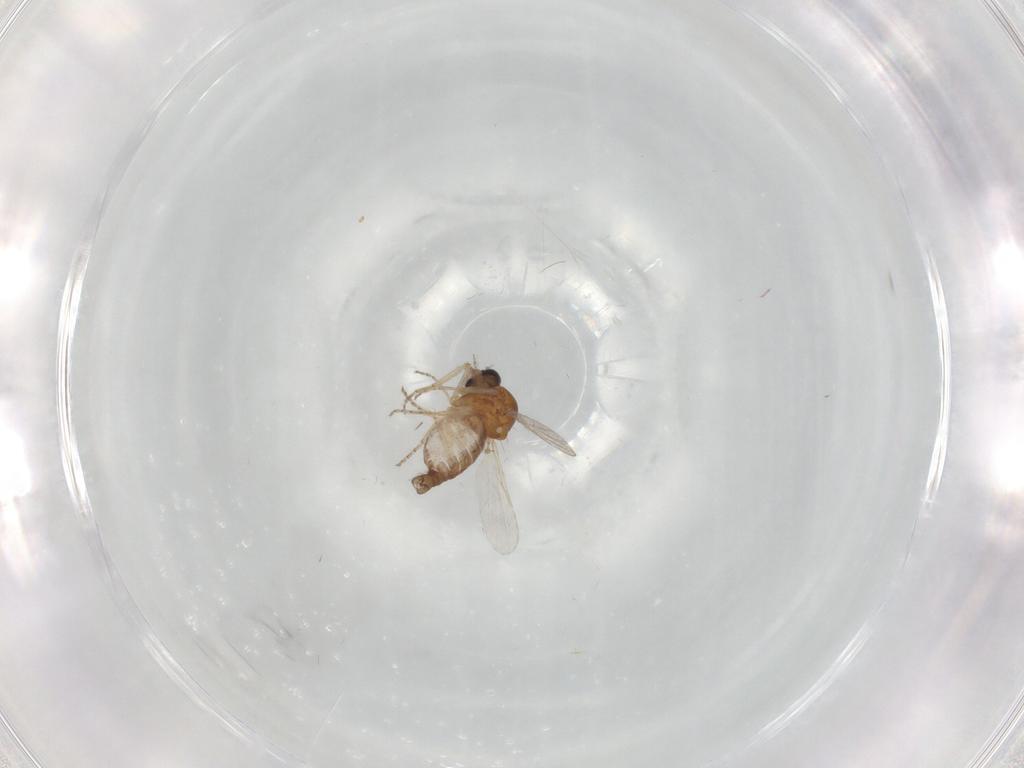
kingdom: Animalia
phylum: Arthropoda
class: Insecta
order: Diptera
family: Ceratopogonidae
